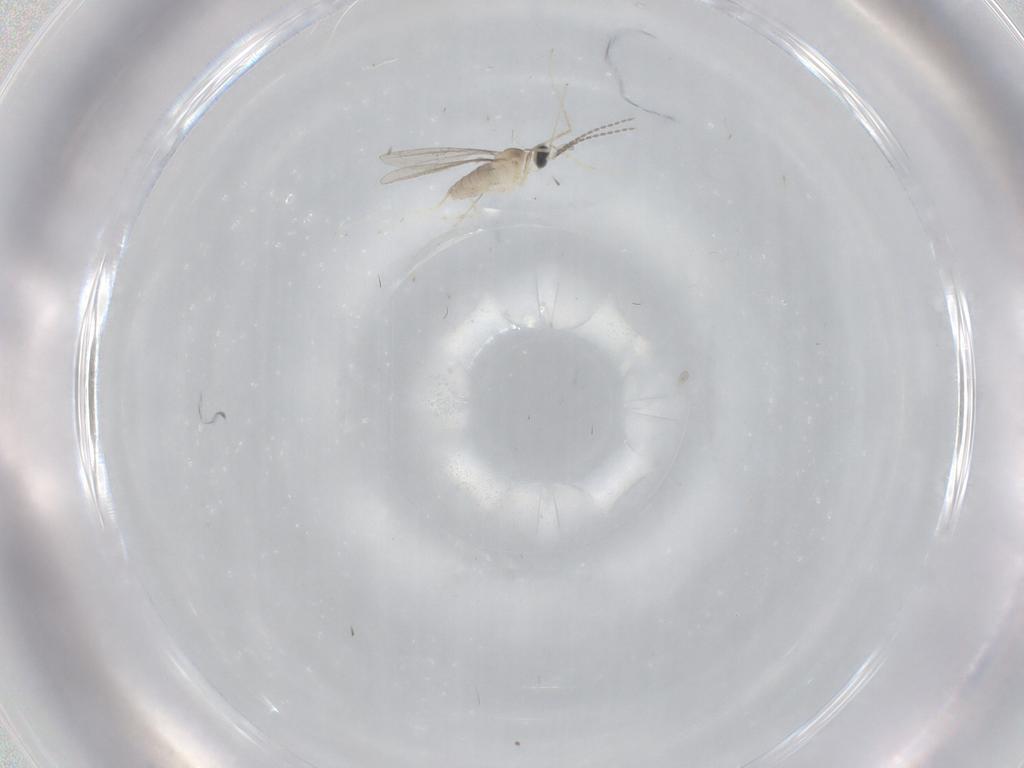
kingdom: Animalia
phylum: Arthropoda
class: Insecta
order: Diptera
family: Cecidomyiidae
